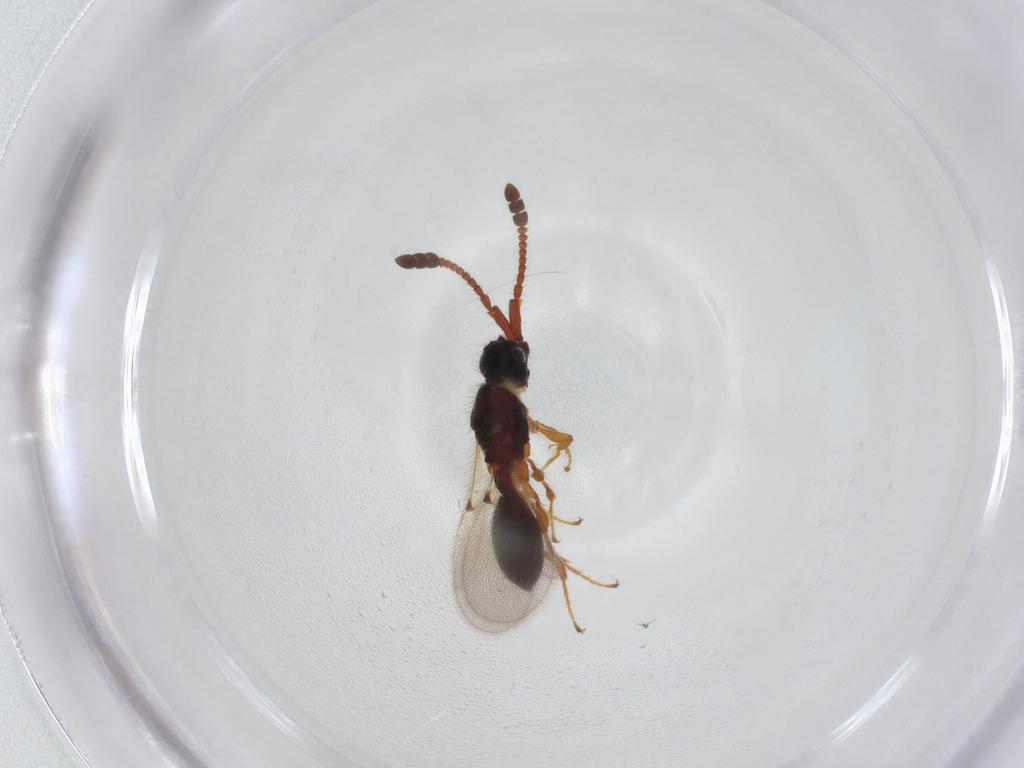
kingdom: Animalia
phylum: Arthropoda
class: Insecta
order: Hymenoptera
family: Diapriidae
